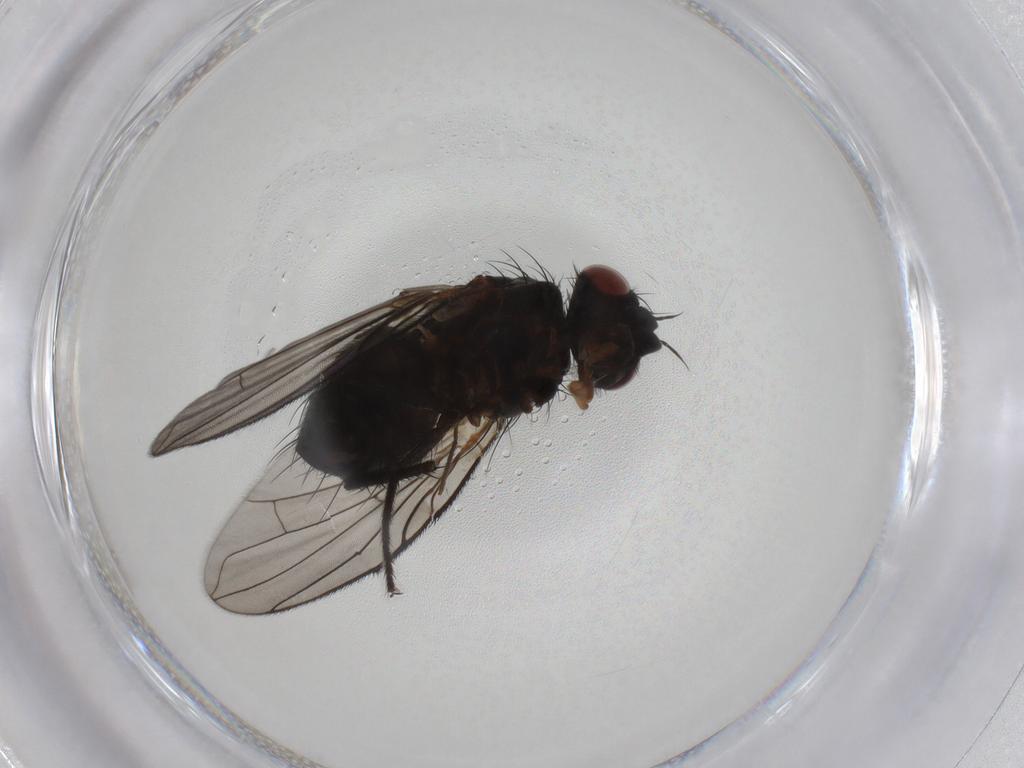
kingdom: Animalia
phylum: Arthropoda
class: Insecta
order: Diptera
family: Tachinidae
